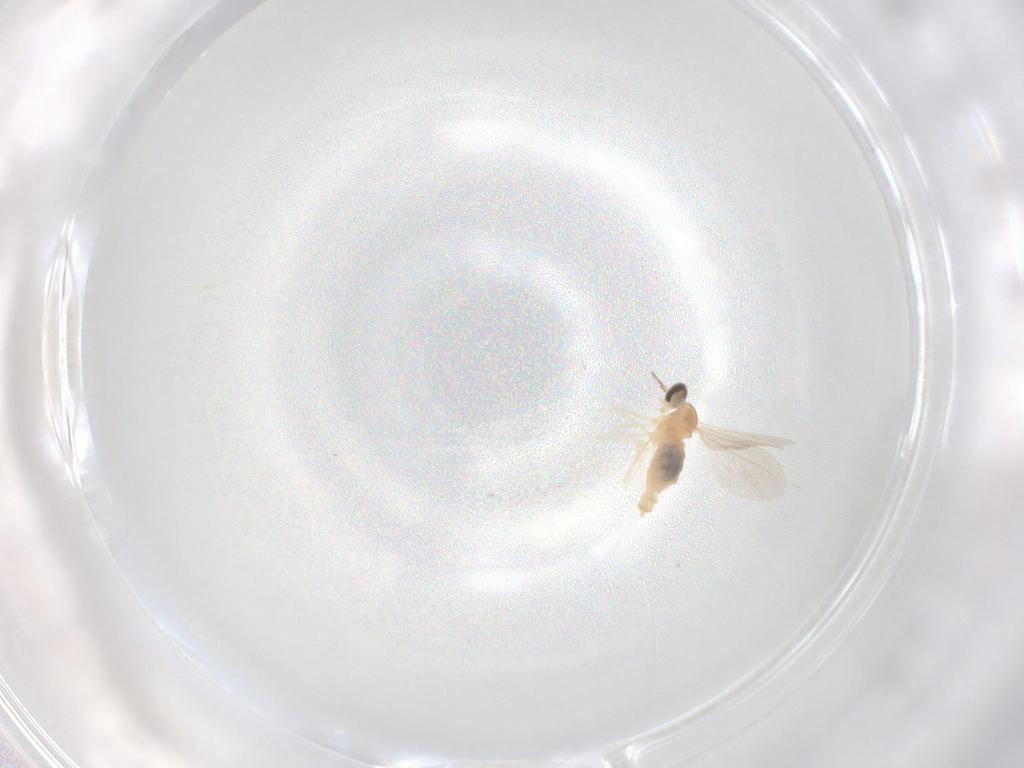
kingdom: Animalia
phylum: Arthropoda
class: Insecta
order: Diptera
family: Cecidomyiidae
